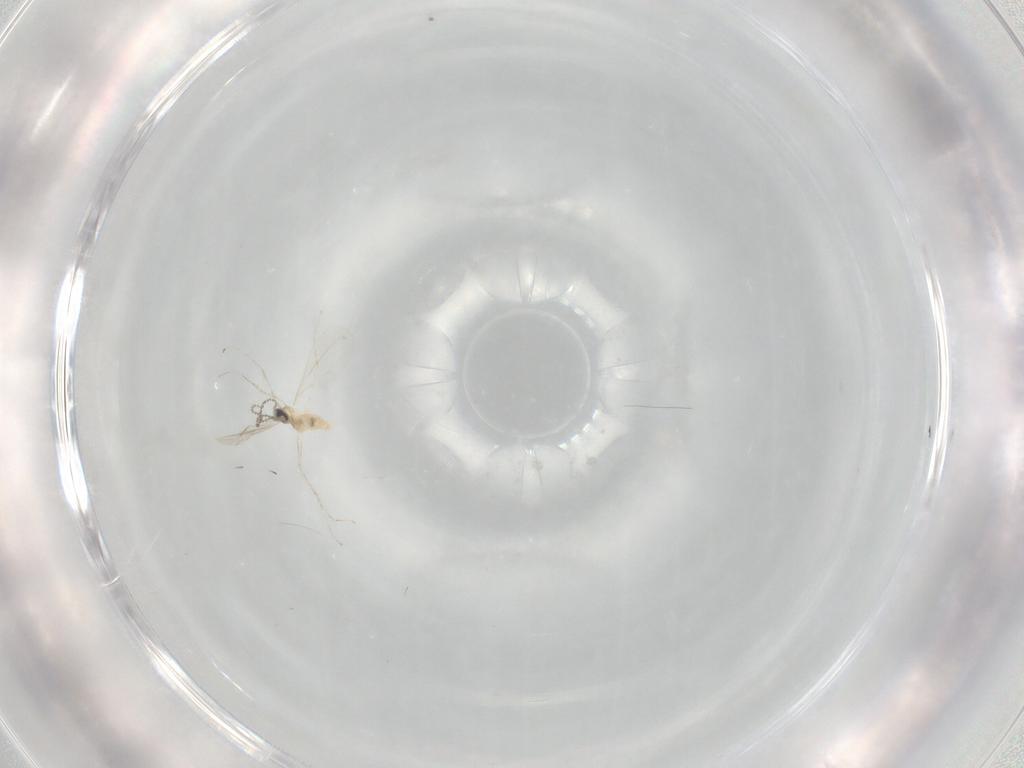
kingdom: Animalia
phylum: Arthropoda
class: Insecta
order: Diptera
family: Cecidomyiidae
